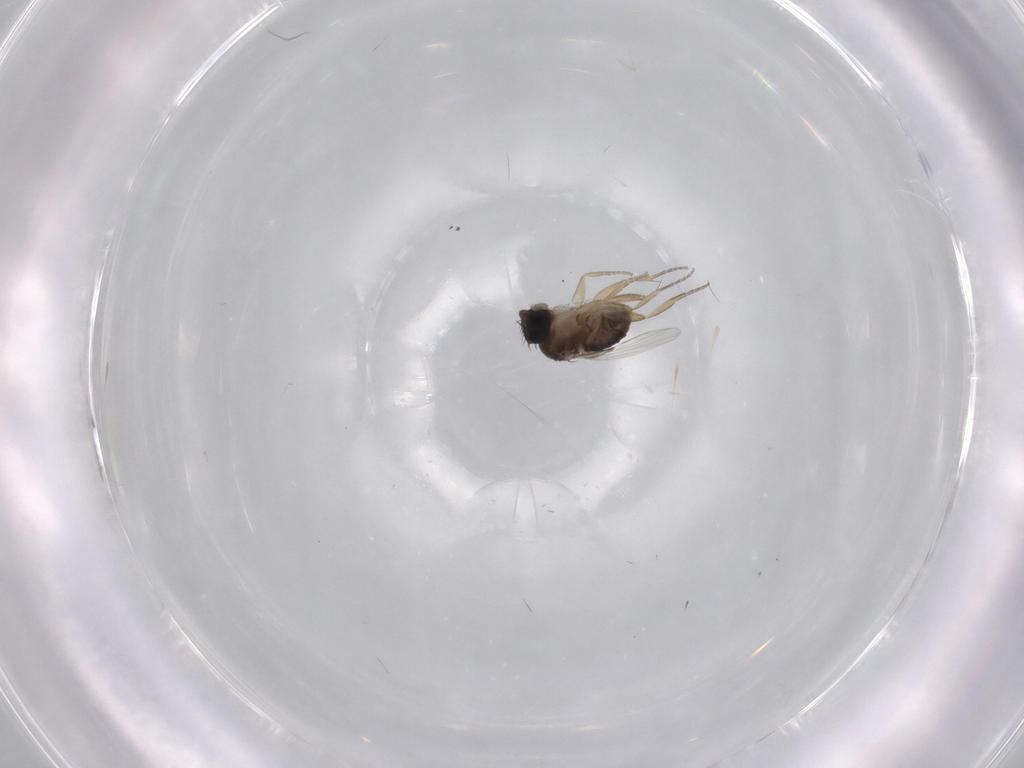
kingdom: Animalia
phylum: Arthropoda
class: Insecta
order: Diptera
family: Phoridae
